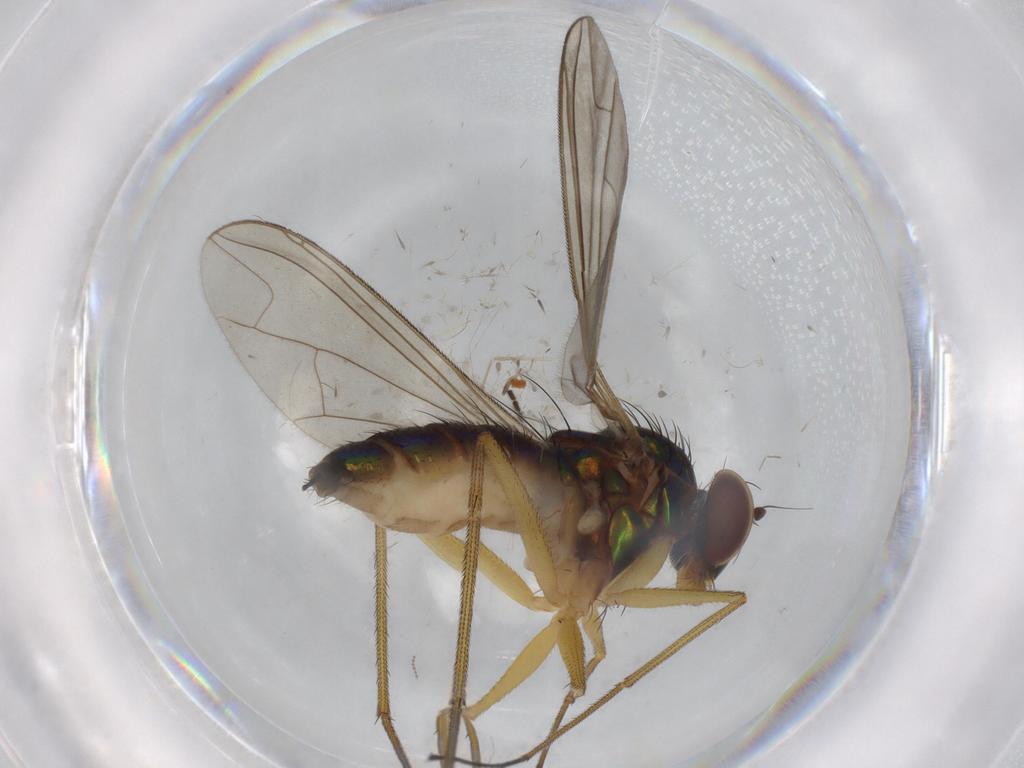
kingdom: Animalia
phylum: Arthropoda
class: Insecta
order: Diptera
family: Dolichopodidae
